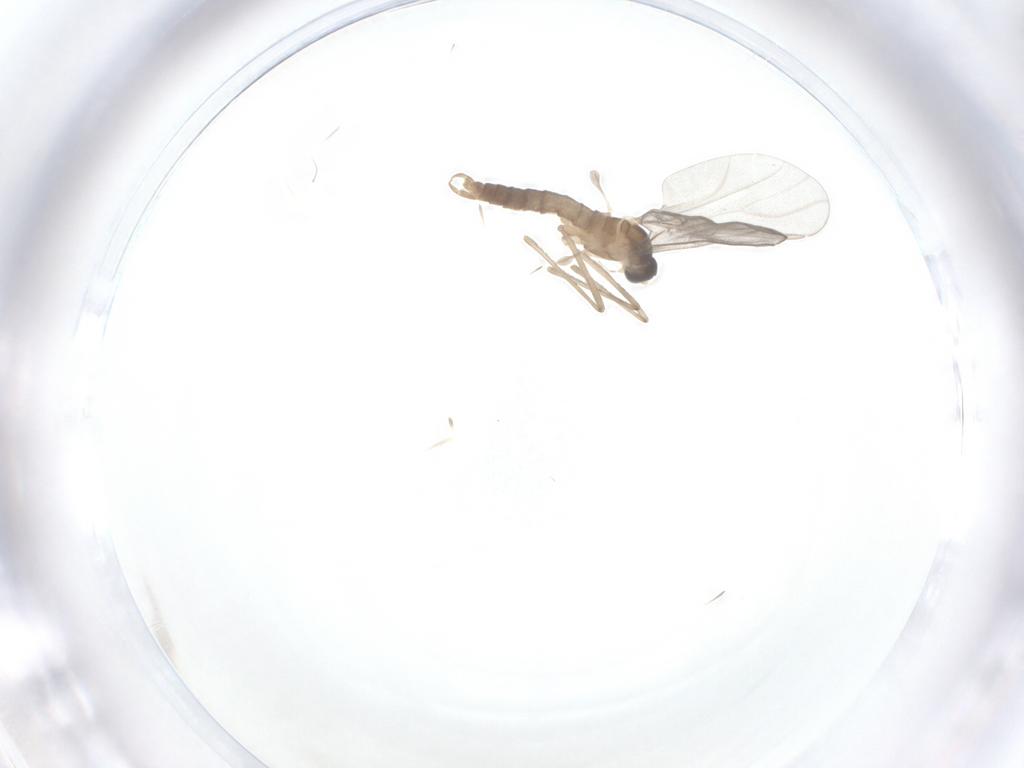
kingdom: Animalia
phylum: Arthropoda
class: Insecta
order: Diptera
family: Cecidomyiidae
